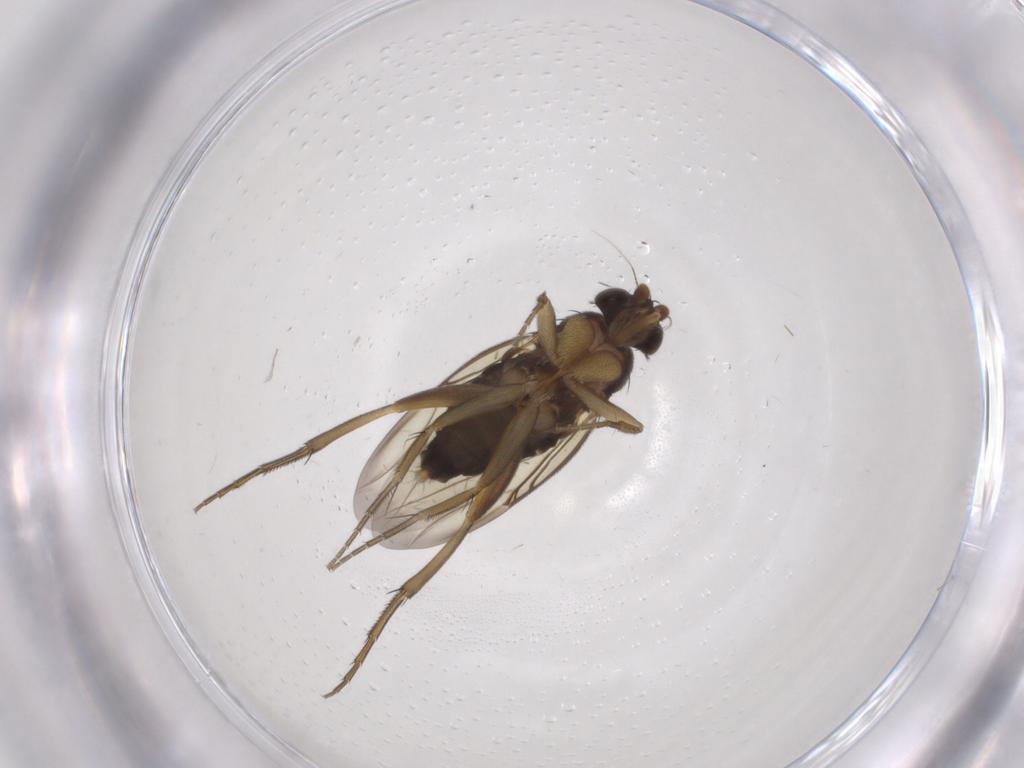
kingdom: Animalia
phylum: Arthropoda
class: Insecta
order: Diptera
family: Phoridae
